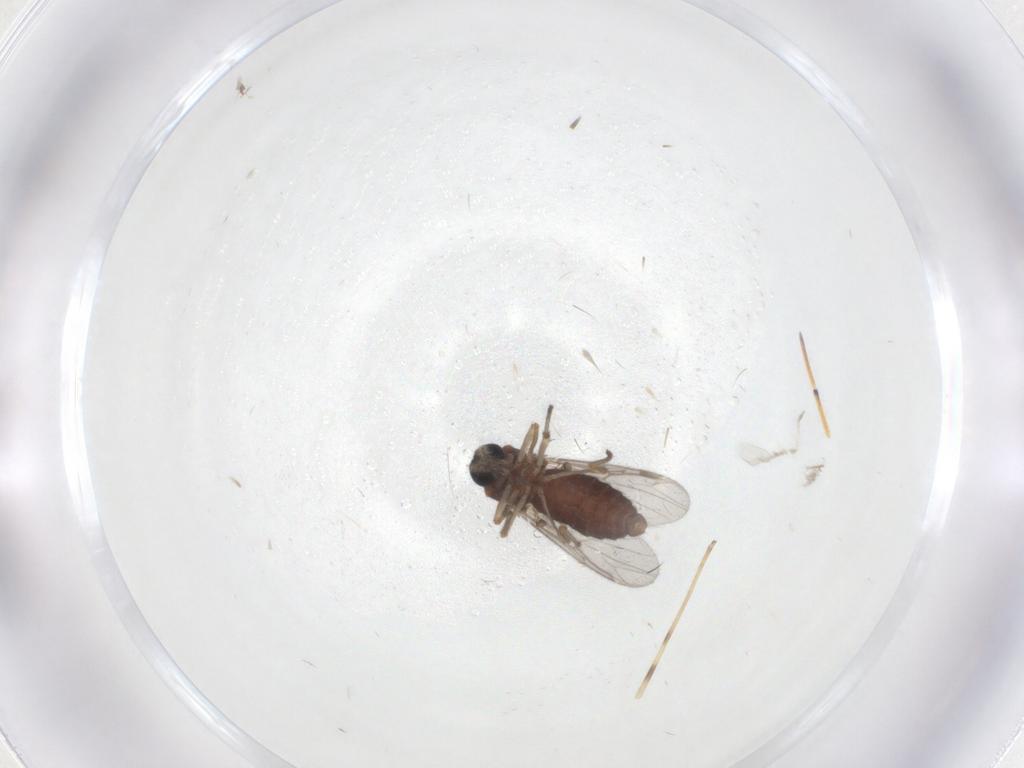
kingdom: Animalia
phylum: Arthropoda
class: Insecta
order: Diptera
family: Ceratopogonidae
